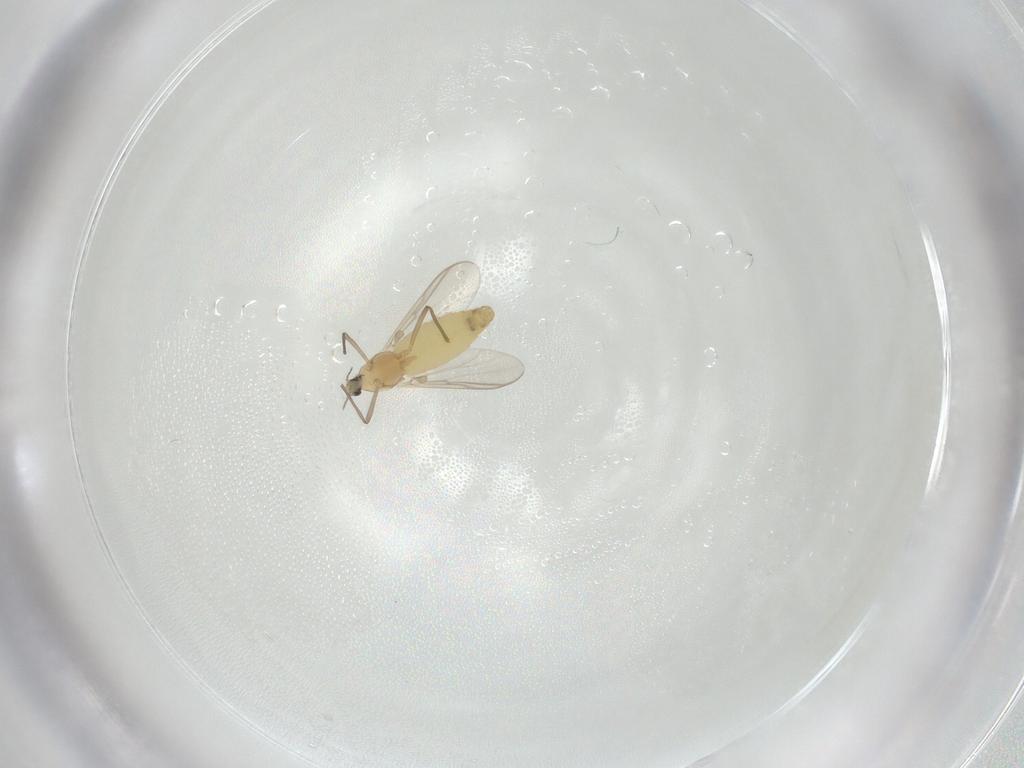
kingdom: Animalia
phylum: Arthropoda
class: Insecta
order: Diptera
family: Chironomidae
